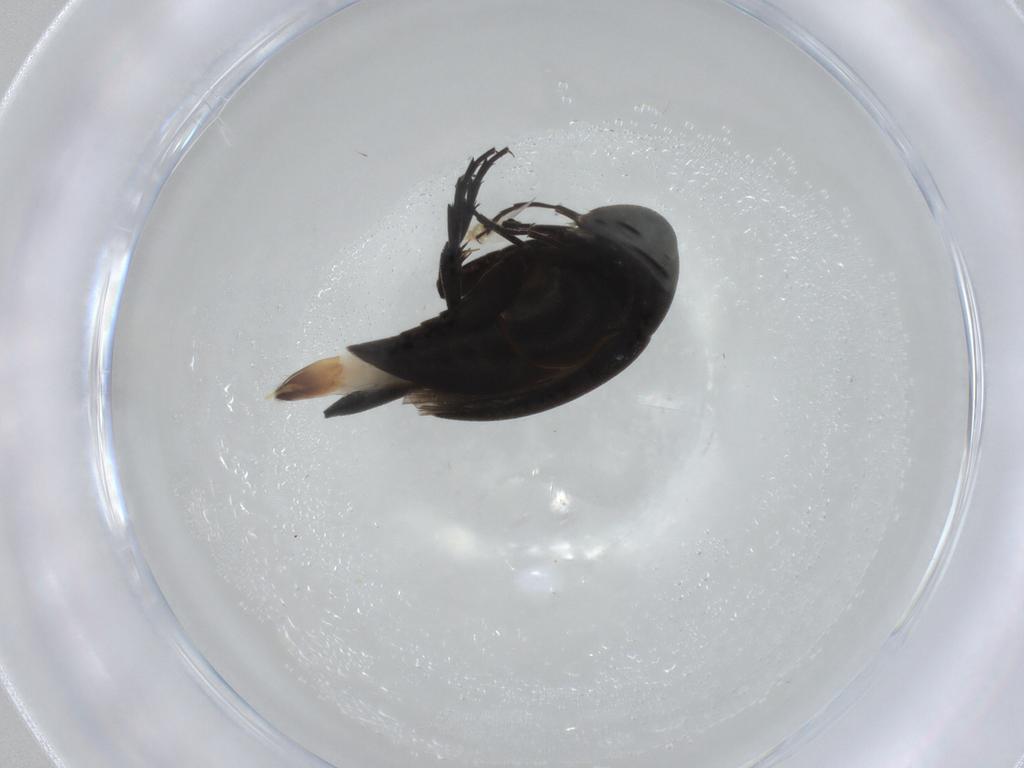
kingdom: Animalia
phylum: Arthropoda
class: Insecta
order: Coleoptera
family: Mordellidae
